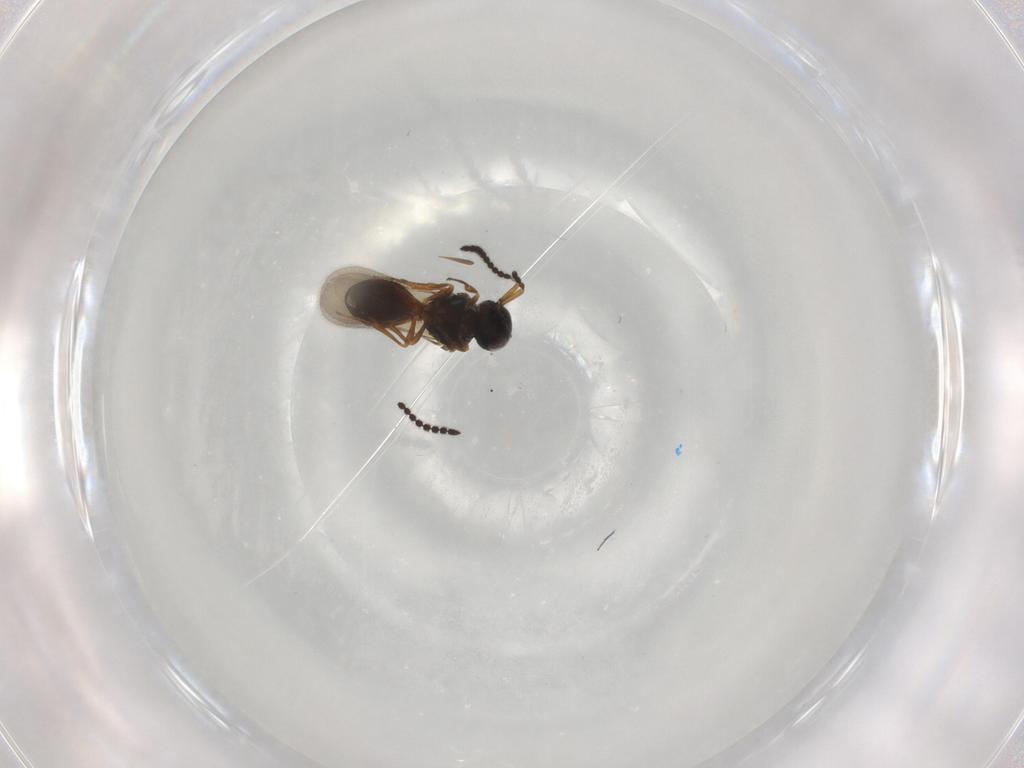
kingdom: Animalia
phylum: Arthropoda
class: Insecta
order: Hymenoptera
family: Scelionidae
